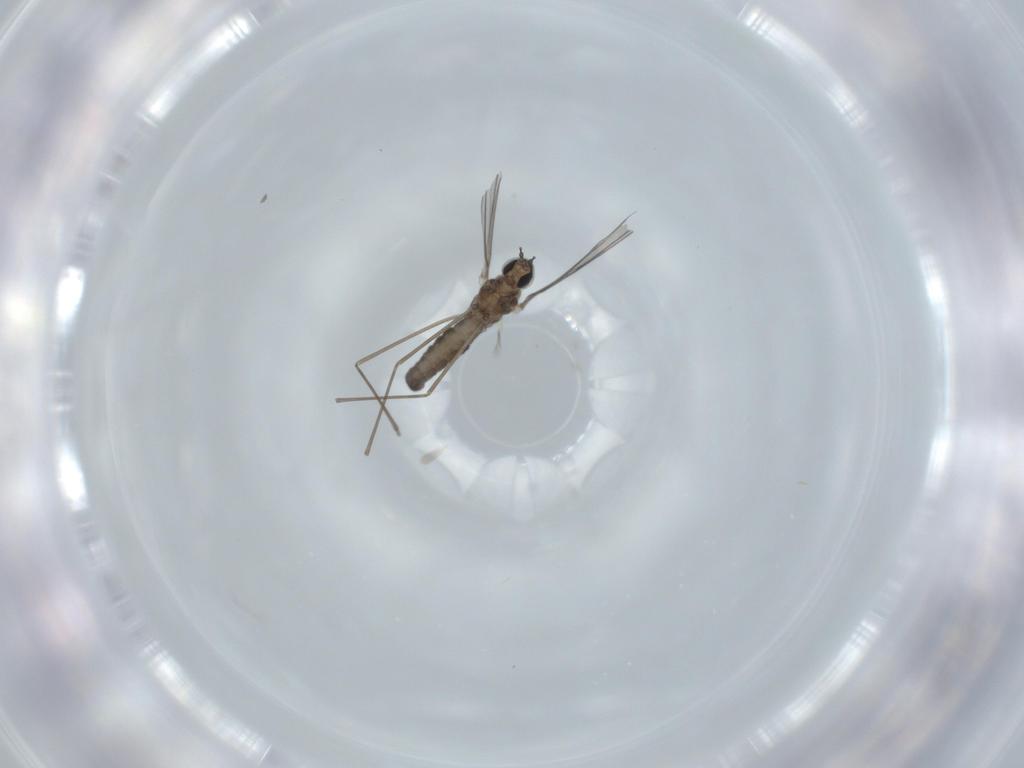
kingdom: Animalia
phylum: Arthropoda
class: Insecta
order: Diptera
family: Cecidomyiidae
